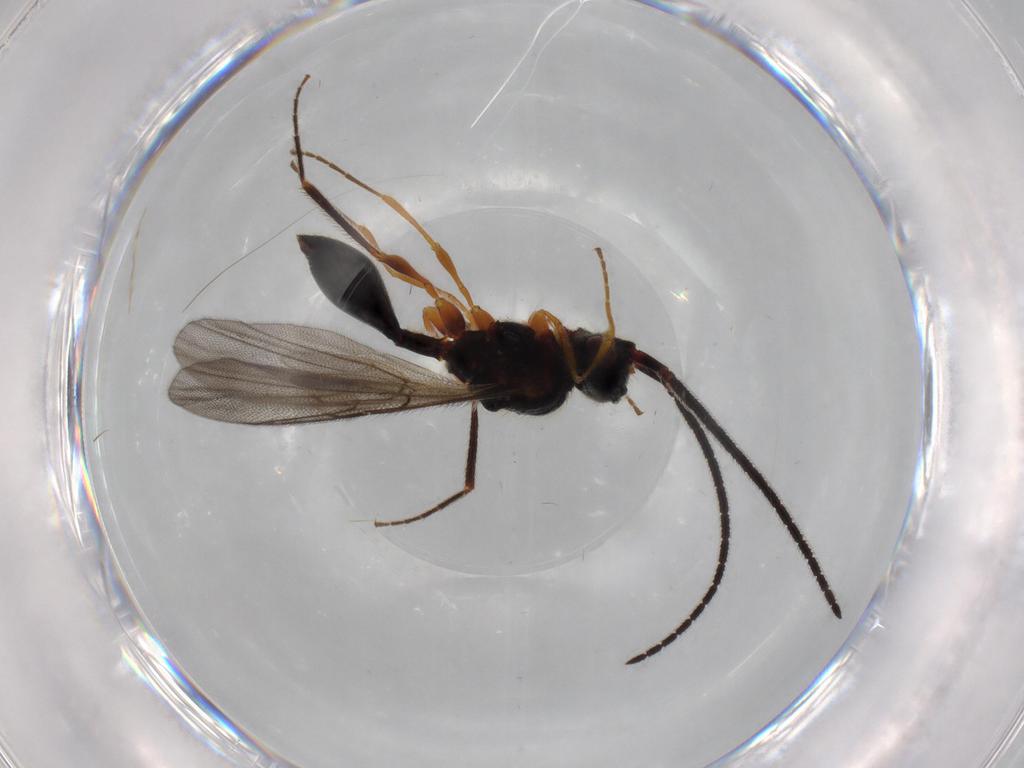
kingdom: Animalia
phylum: Arthropoda
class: Insecta
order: Hymenoptera
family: Diapriidae
